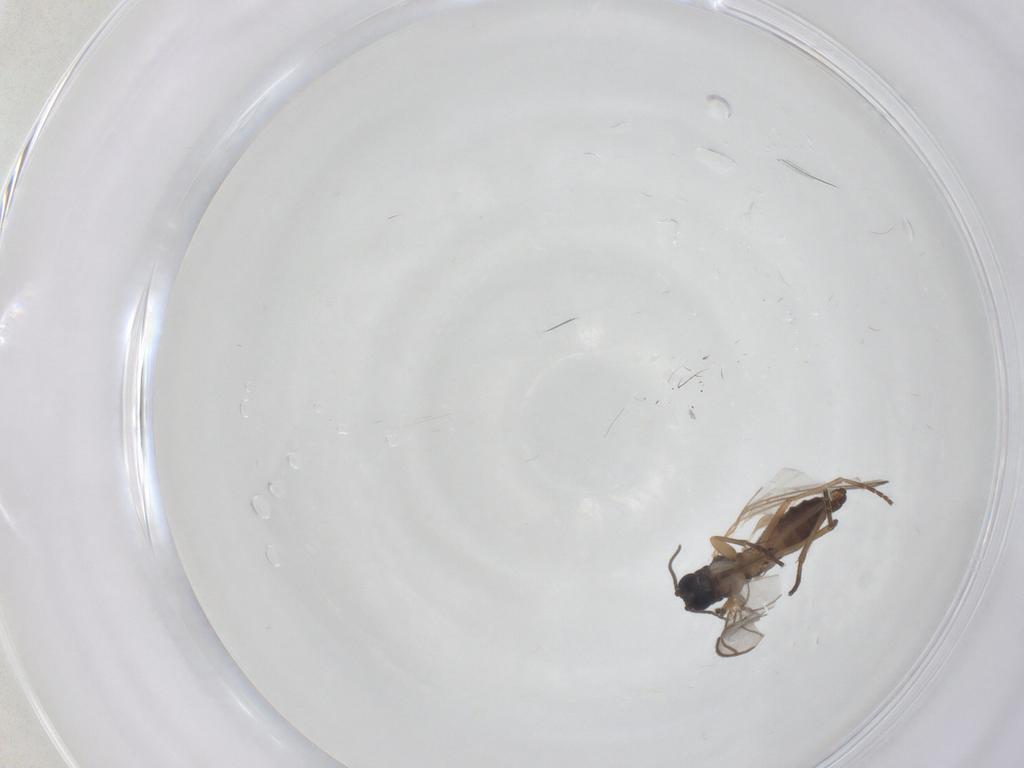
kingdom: Animalia
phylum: Arthropoda
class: Insecta
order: Diptera
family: Sciaridae
